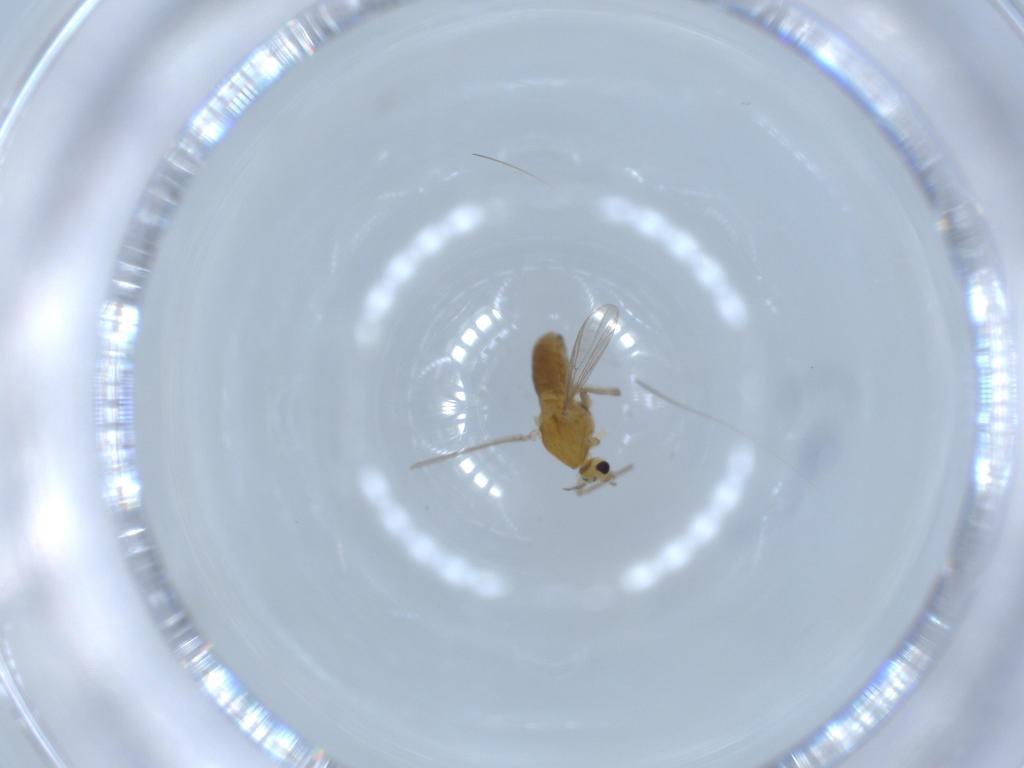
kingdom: Animalia
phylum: Arthropoda
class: Insecta
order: Diptera
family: Chironomidae
